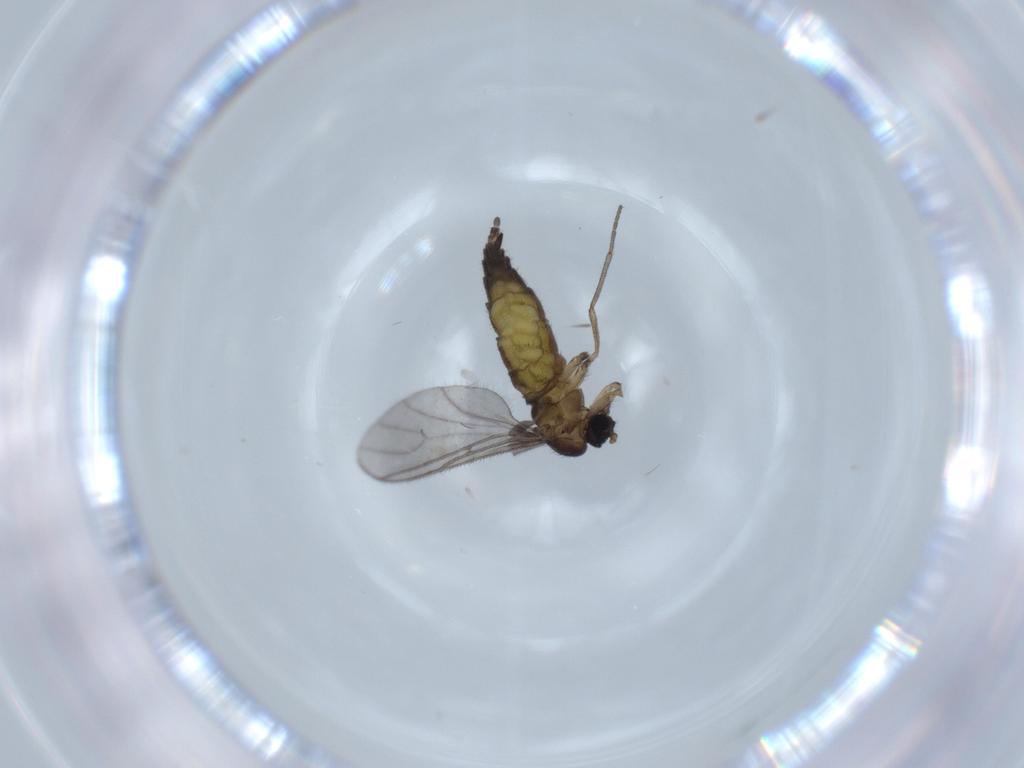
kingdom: Animalia
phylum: Arthropoda
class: Insecta
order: Diptera
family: Sciaridae
